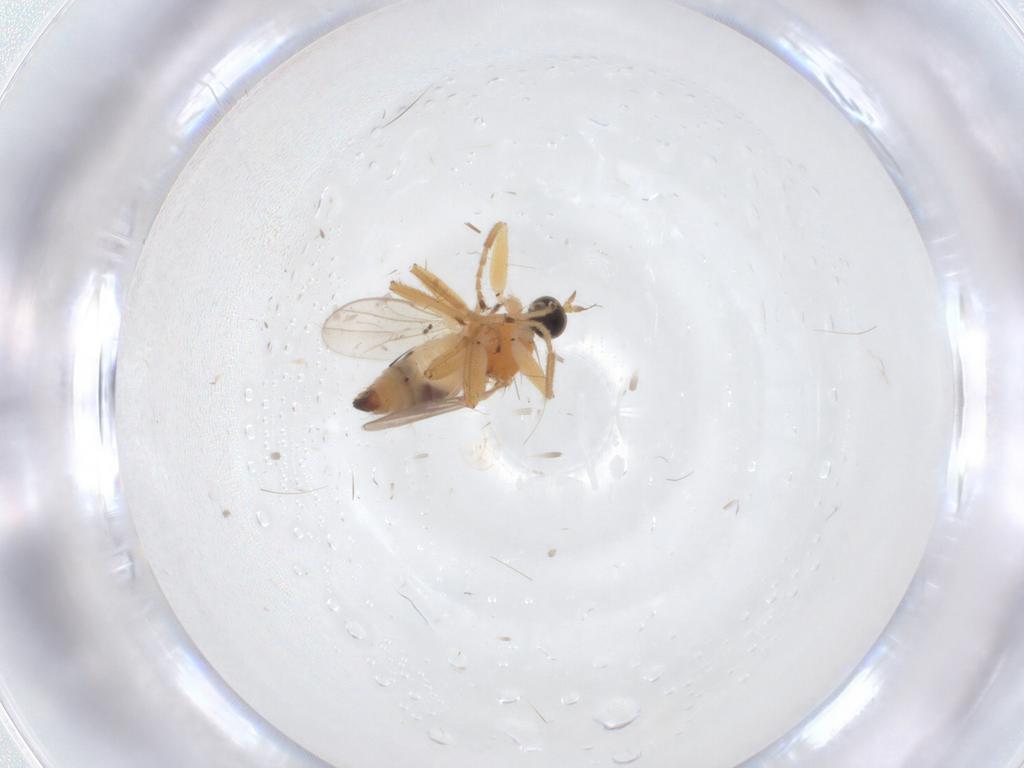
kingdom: Animalia
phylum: Arthropoda
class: Insecta
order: Diptera
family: Hybotidae
